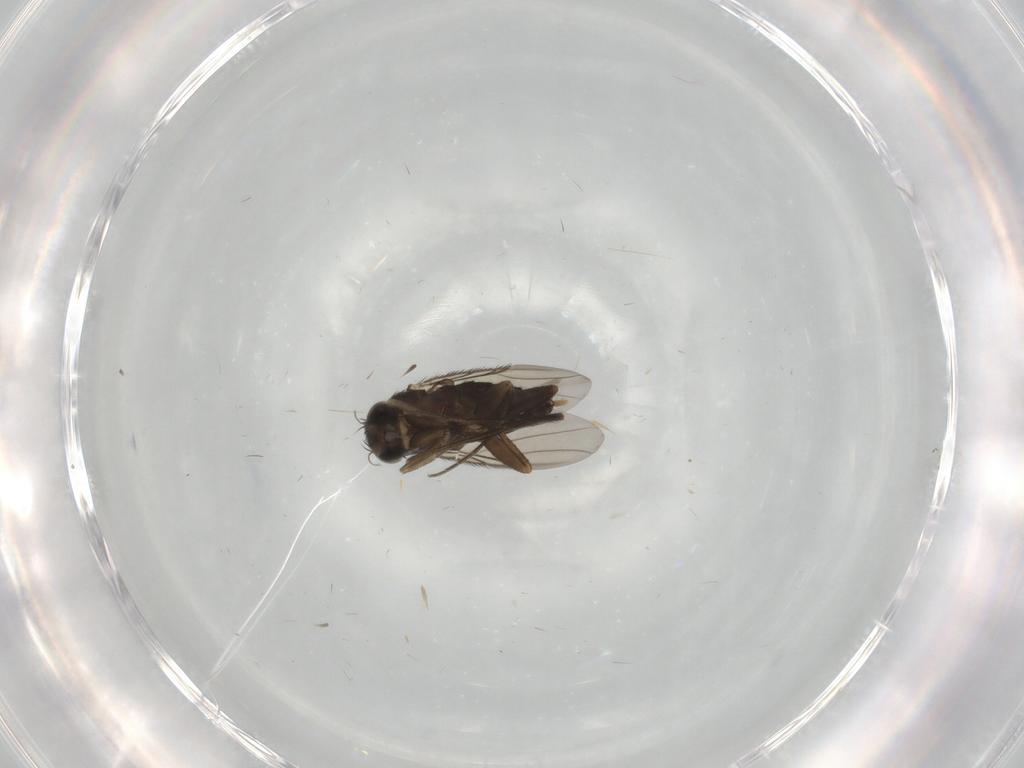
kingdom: Animalia
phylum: Arthropoda
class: Insecta
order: Diptera
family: Phoridae
